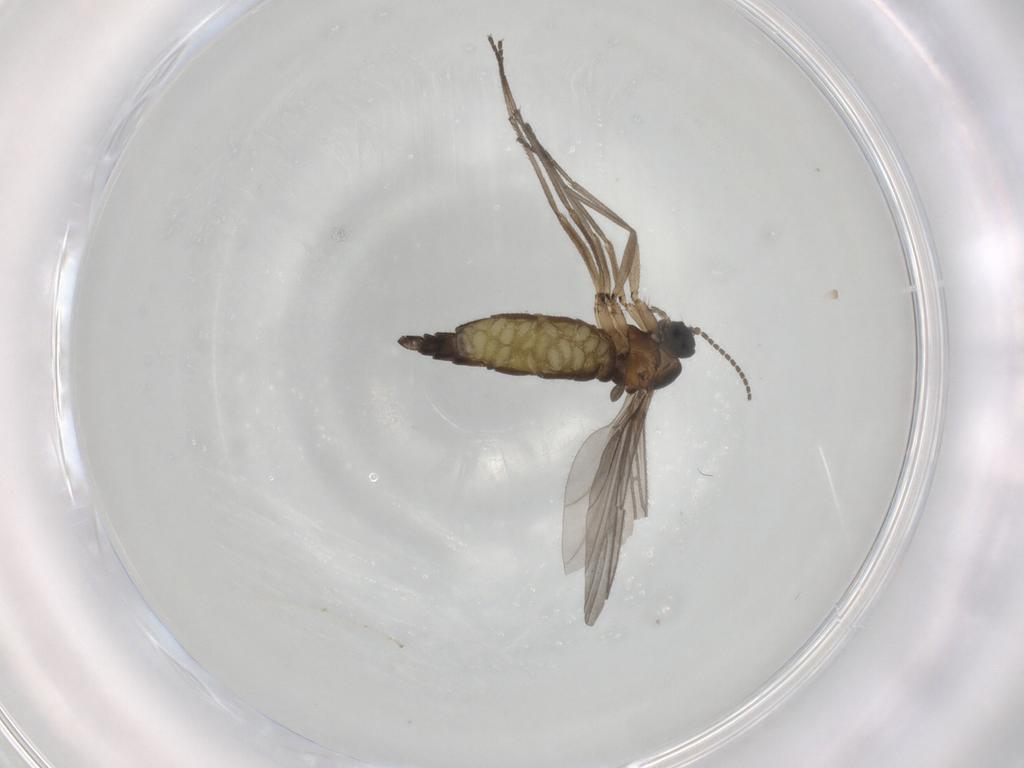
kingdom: Animalia
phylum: Arthropoda
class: Insecta
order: Diptera
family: Cecidomyiidae
